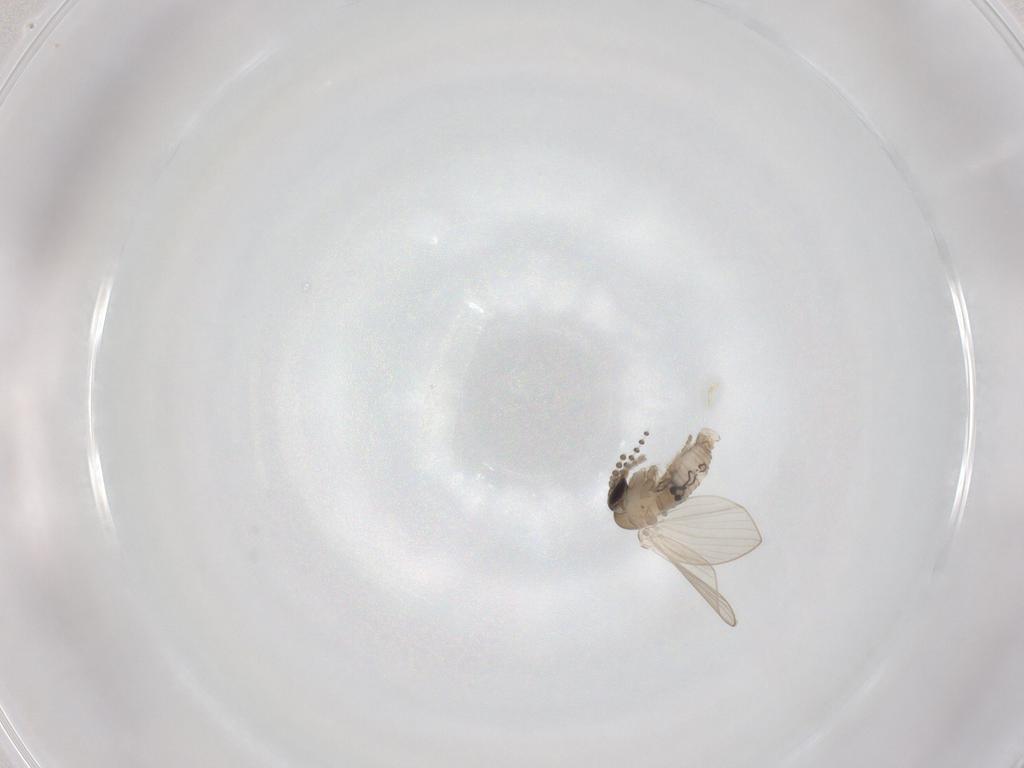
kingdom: Animalia
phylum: Arthropoda
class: Insecta
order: Diptera
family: Psychodidae
